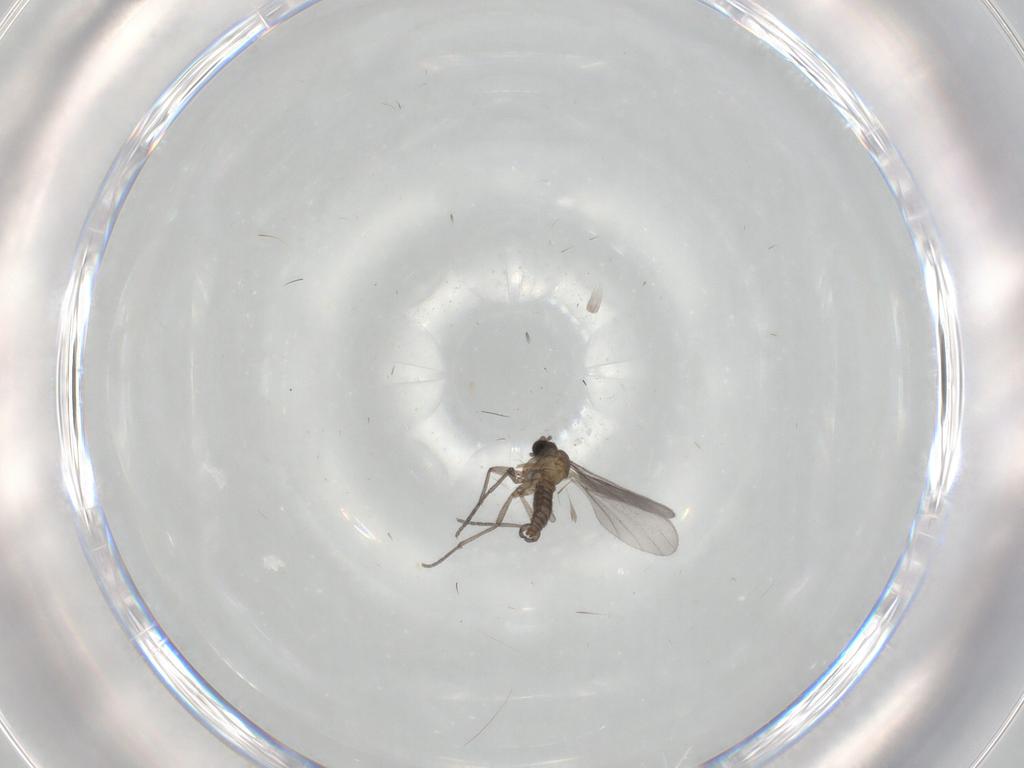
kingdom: Animalia
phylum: Arthropoda
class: Insecta
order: Diptera
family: Sciaridae
